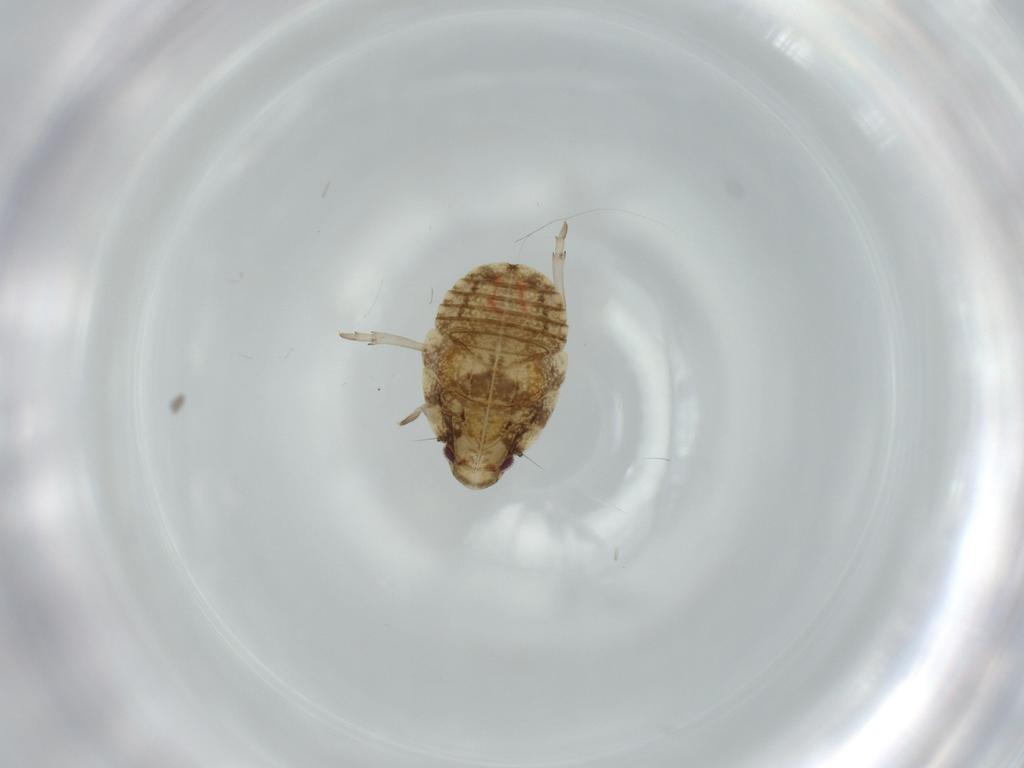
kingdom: Animalia
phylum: Arthropoda
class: Insecta
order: Hemiptera
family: Flatidae
